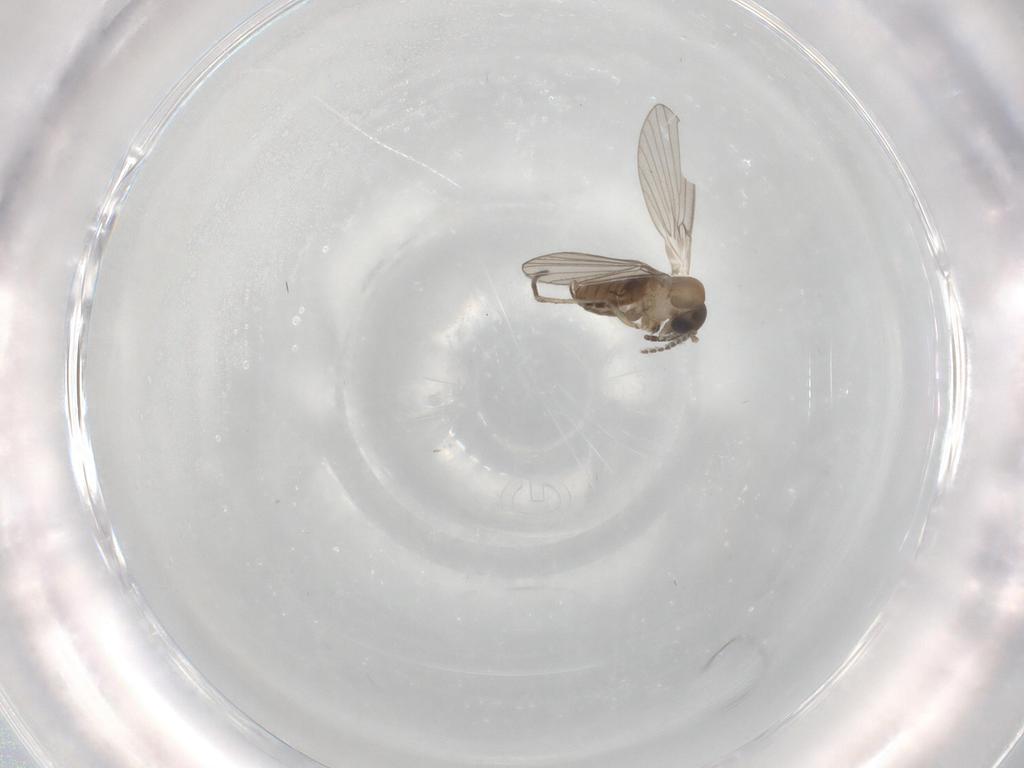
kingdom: Animalia
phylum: Arthropoda
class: Insecta
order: Diptera
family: Psychodidae
